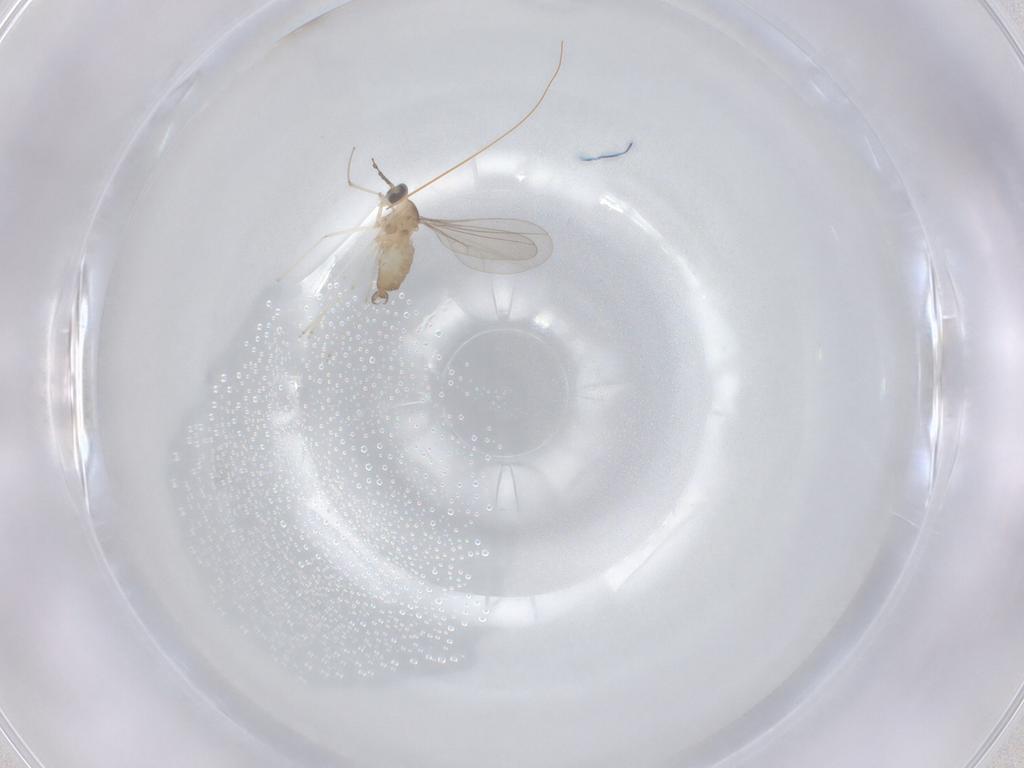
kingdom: Animalia
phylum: Arthropoda
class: Insecta
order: Diptera
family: Cecidomyiidae
